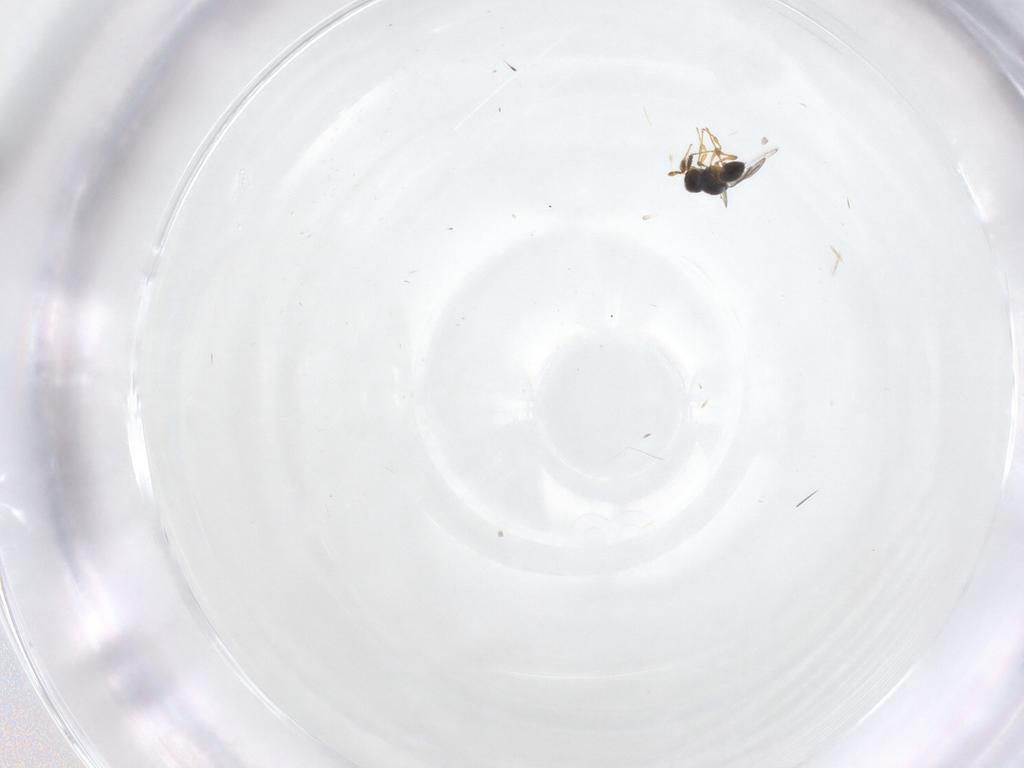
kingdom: Animalia
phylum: Arthropoda
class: Insecta
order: Hymenoptera
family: Platygastridae
